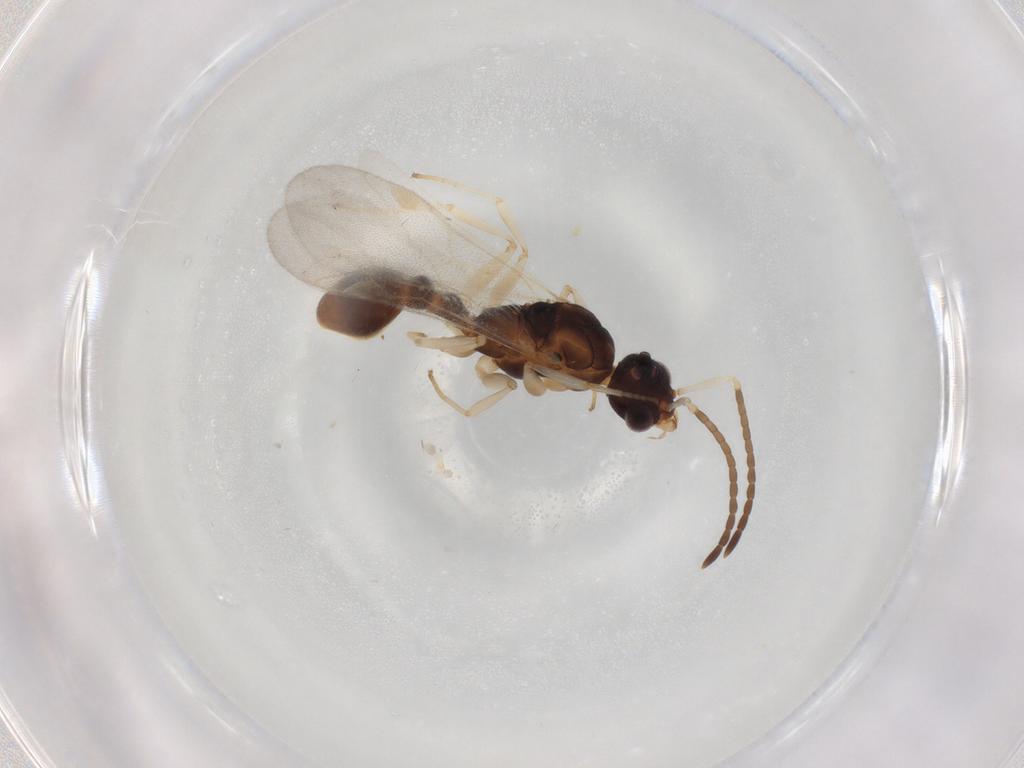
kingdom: Animalia
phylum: Arthropoda
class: Insecta
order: Hymenoptera
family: Formicidae
